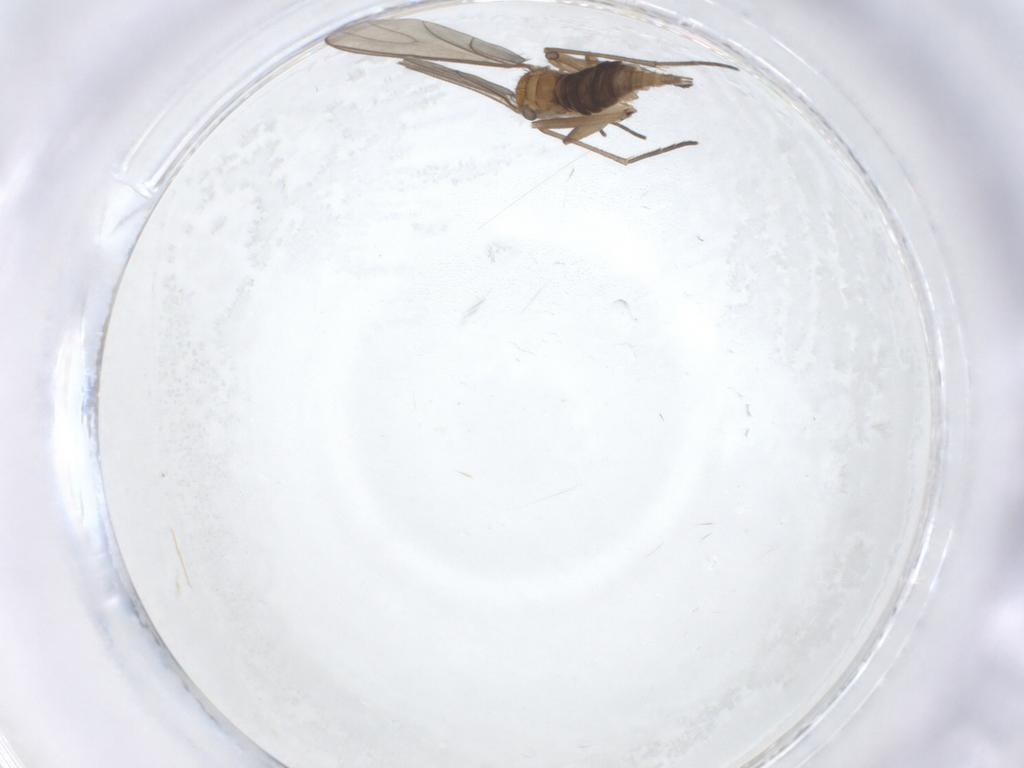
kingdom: Animalia
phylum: Arthropoda
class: Insecta
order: Diptera
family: Sciaridae
